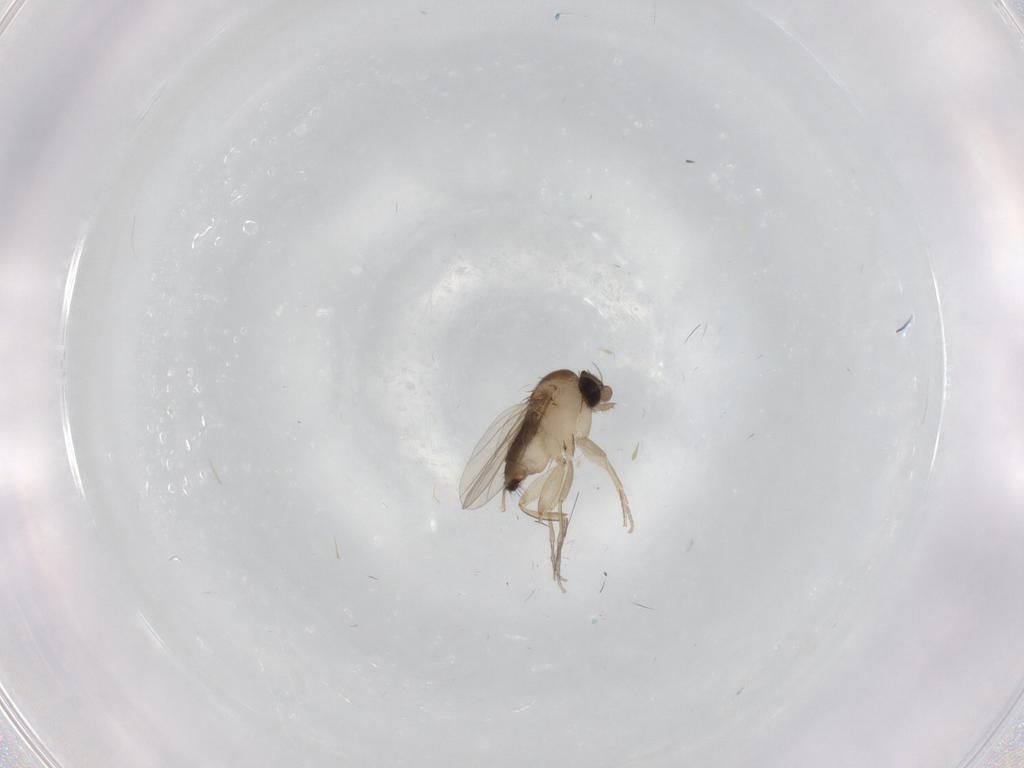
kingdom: Animalia
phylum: Arthropoda
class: Insecta
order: Diptera
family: Phoridae
